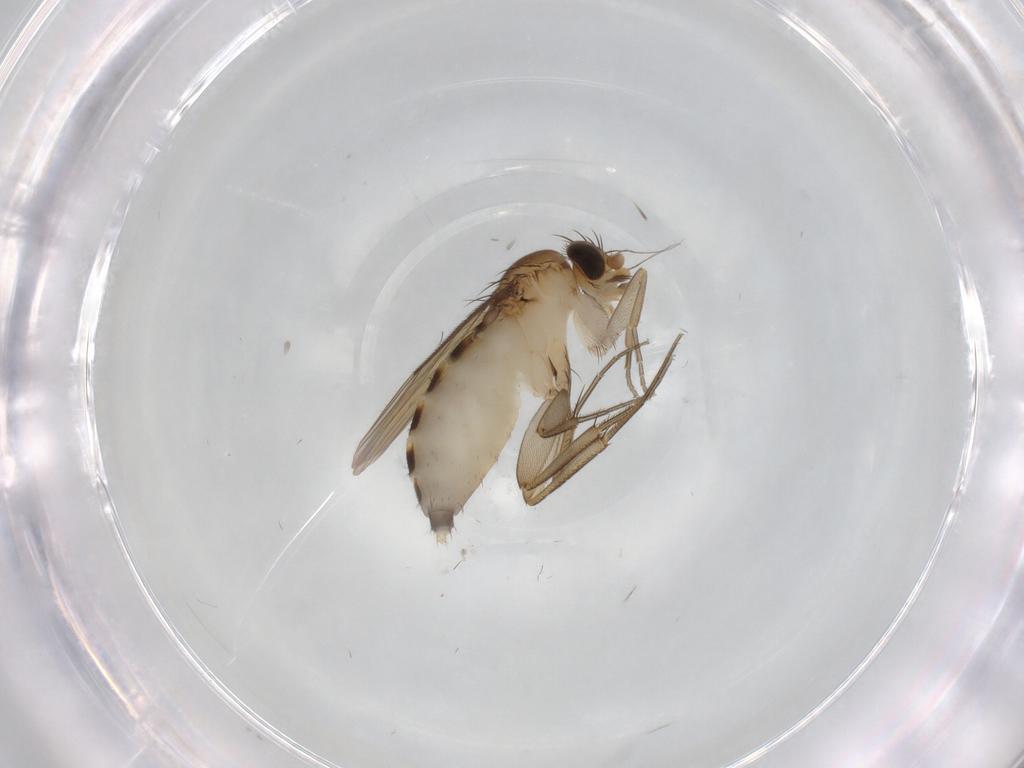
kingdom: Animalia
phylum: Arthropoda
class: Insecta
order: Diptera
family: Phoridae
